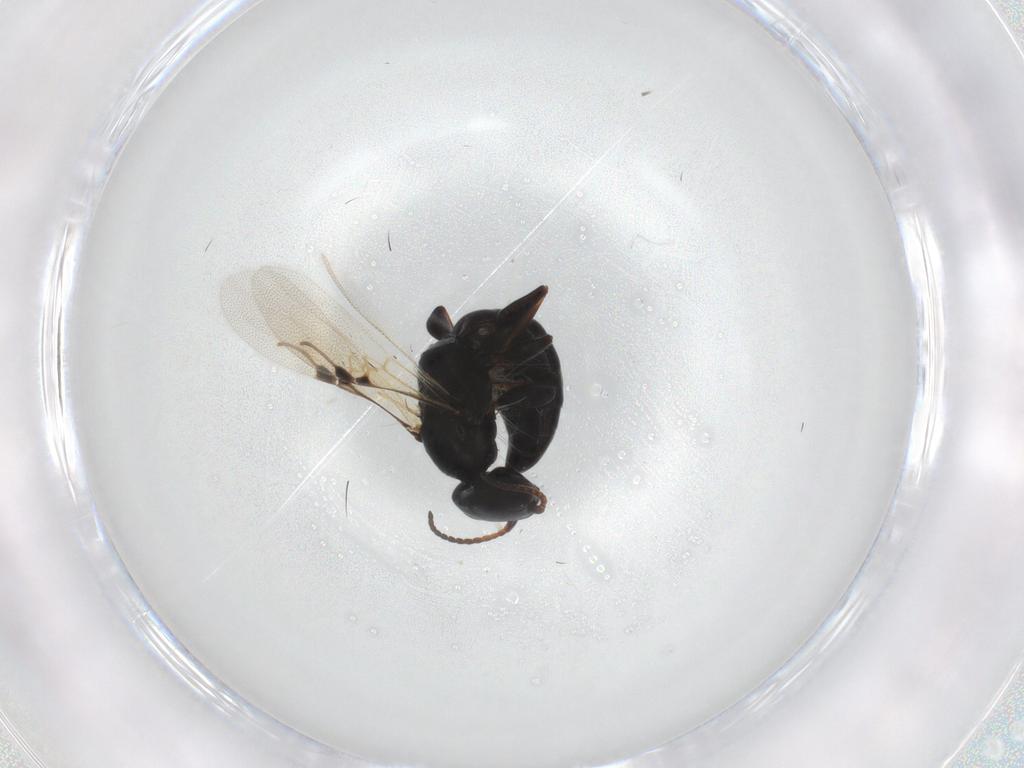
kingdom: Animalia
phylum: Arthropoda
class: Insecta
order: Hymenoptera
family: Bethylidae
